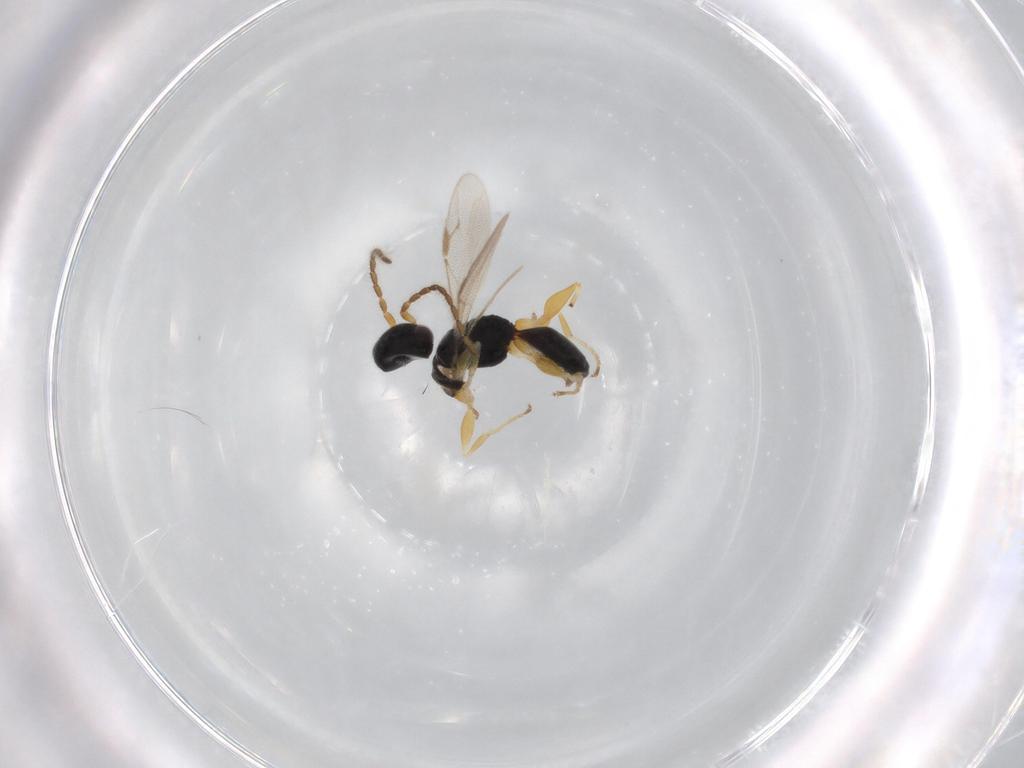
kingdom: Animalia
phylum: Arthropoda
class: Insecta
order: Hymenoptera
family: Dryinidae
